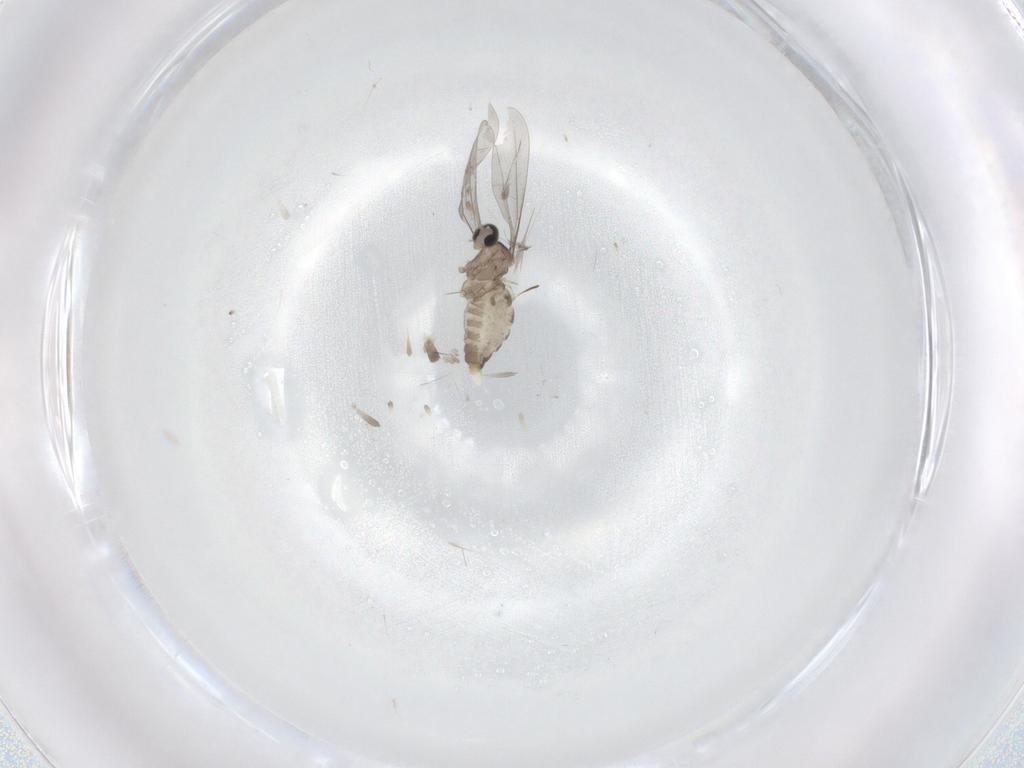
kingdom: Animalia
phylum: Arthropoda
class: Insecta
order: Diptera
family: Cecidomyiidae
